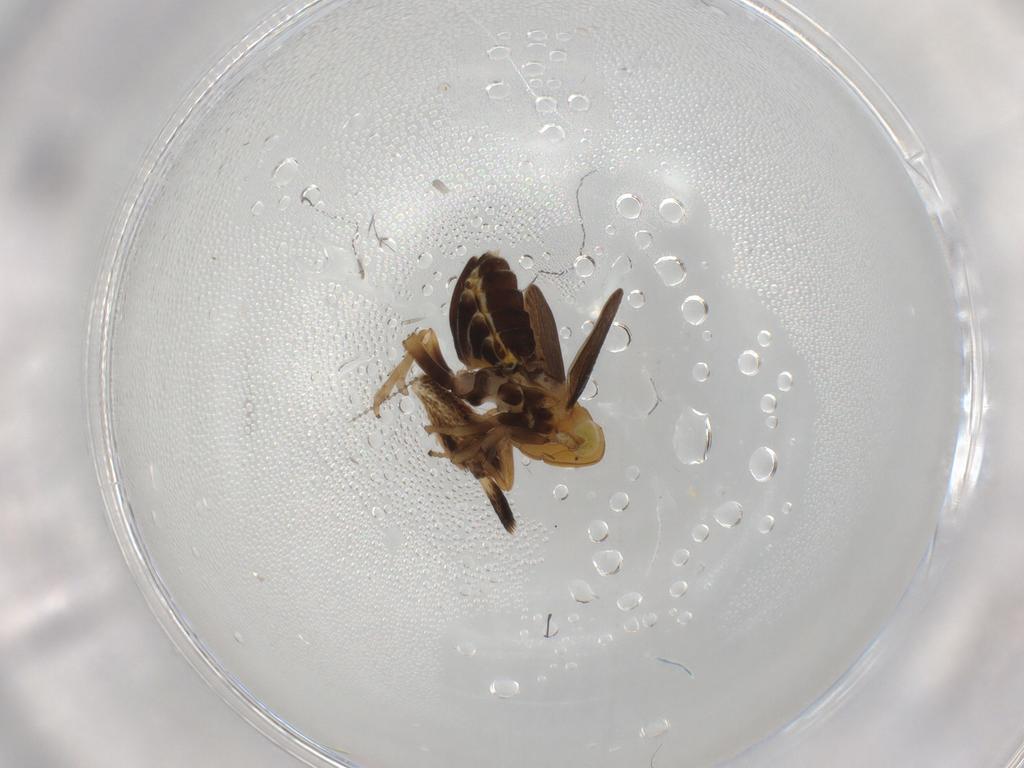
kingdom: Animalia
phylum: Arthropoda
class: Insecta
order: Hemiptera
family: Delphacidae
